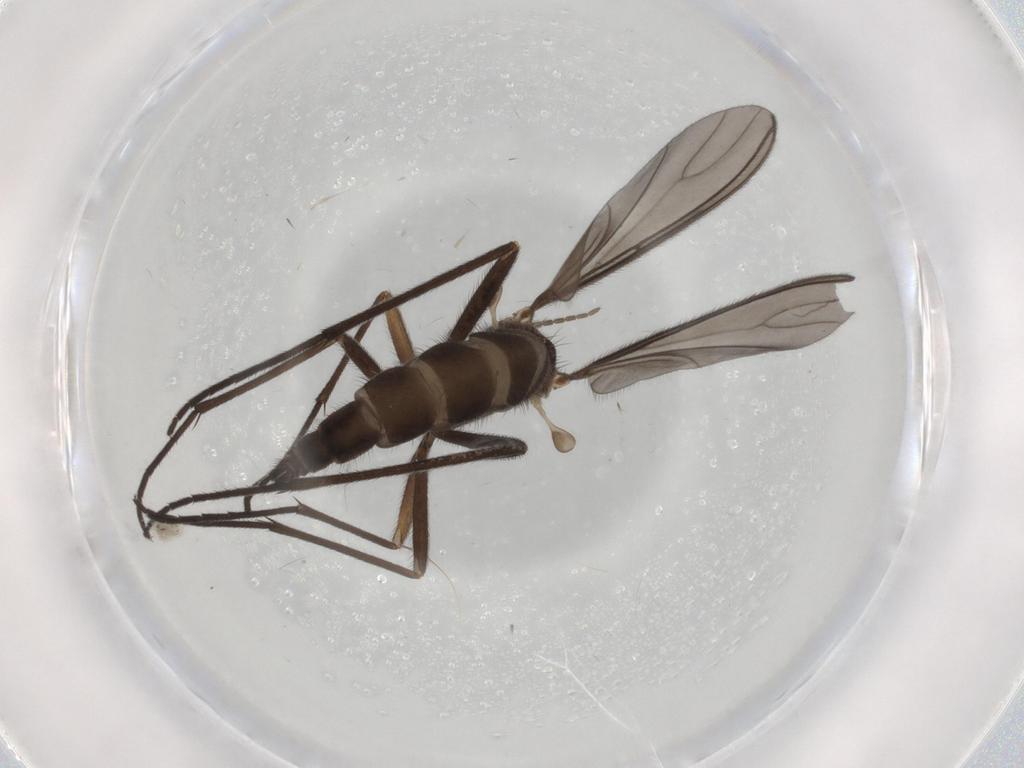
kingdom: Animalia
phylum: Arthropoda
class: Insecta
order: Diptera
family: Sciaridae
